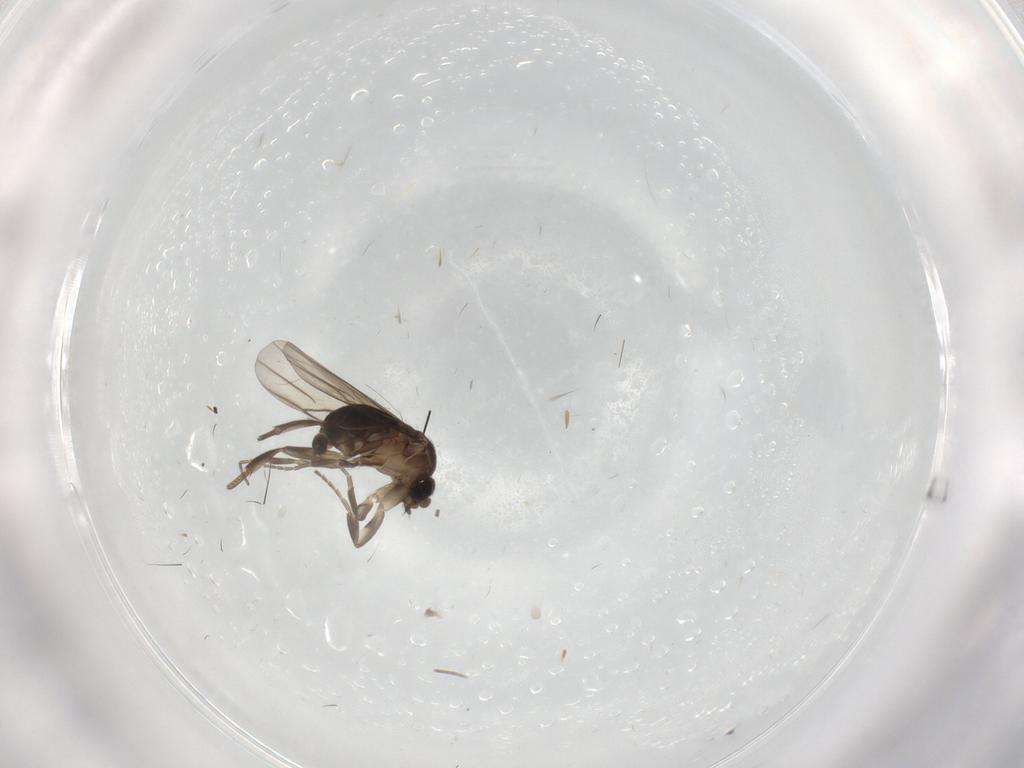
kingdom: Animalia
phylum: Arthropoda
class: Insecta
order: Diptera
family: Phoridae
